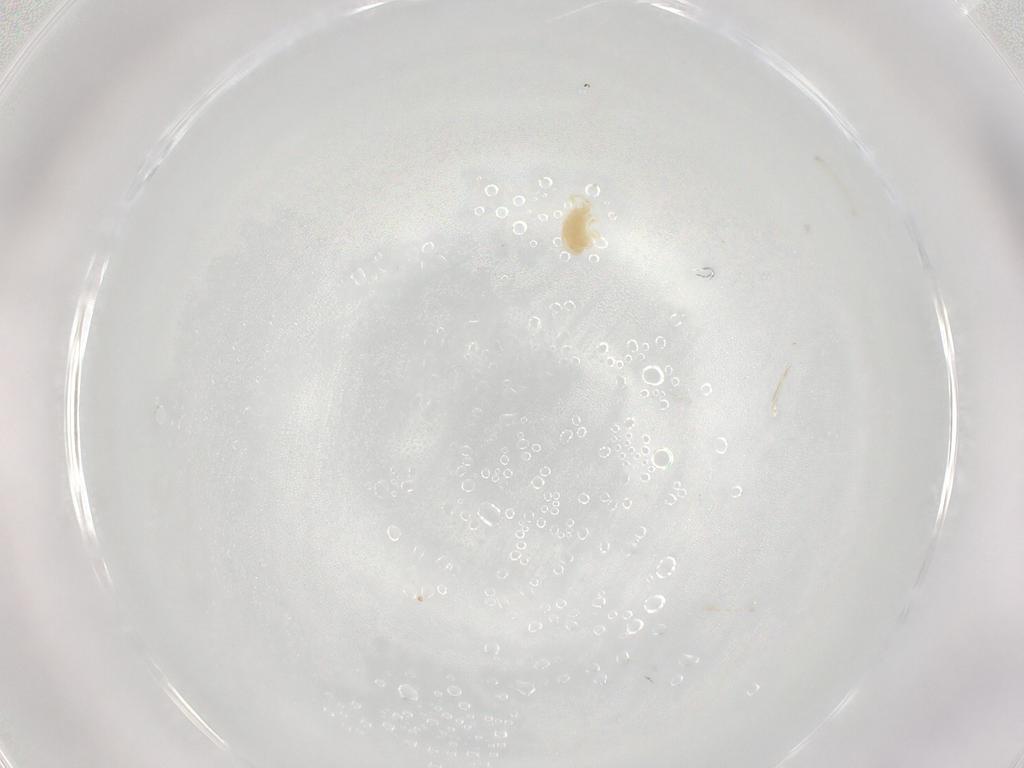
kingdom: Animalia
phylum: Arthropoda
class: Arachnida
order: Trombidiformes
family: Eupodidae
